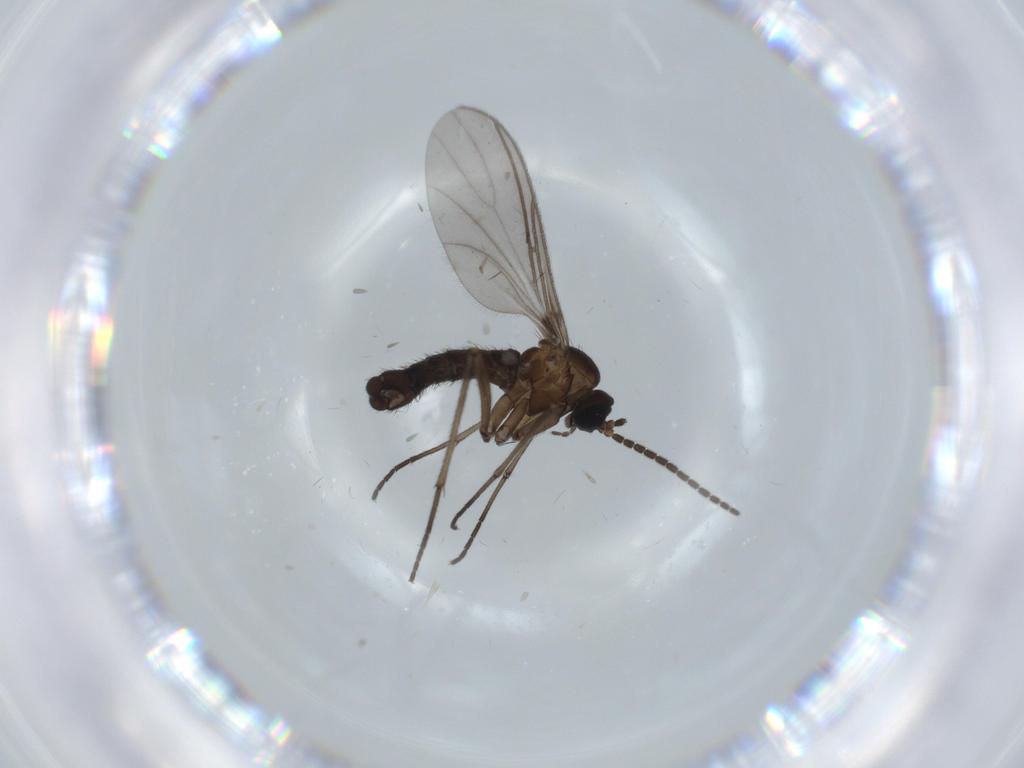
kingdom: Animalia
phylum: Arthropoda
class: Insecta
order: Diptera
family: Sciaridae
